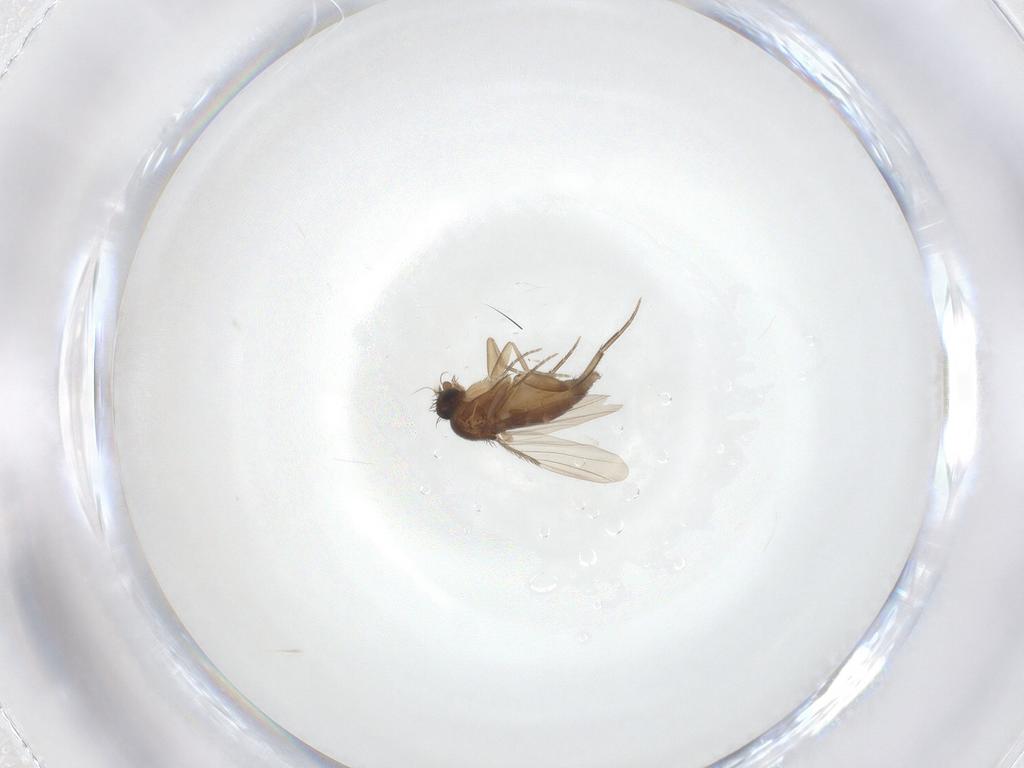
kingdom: Animalia
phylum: Arthropoda
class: Insecta
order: Diptera
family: Phoridae
